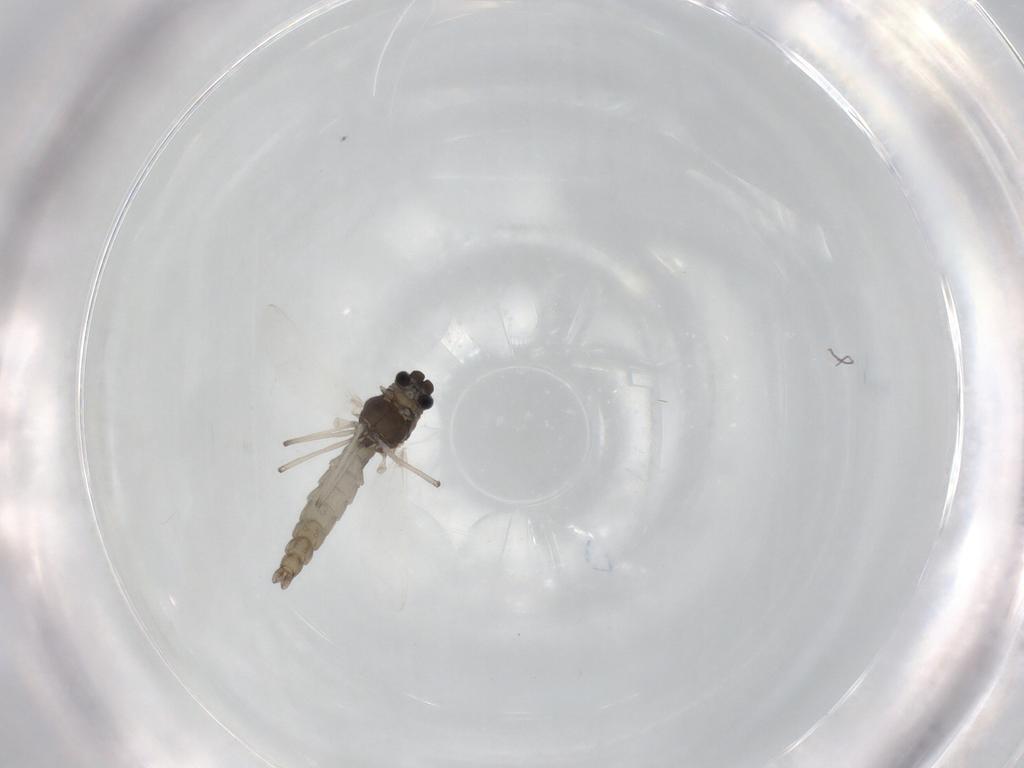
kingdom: Animalia
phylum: Arthropoda
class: Insecta
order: Diptera
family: Chironomidae
